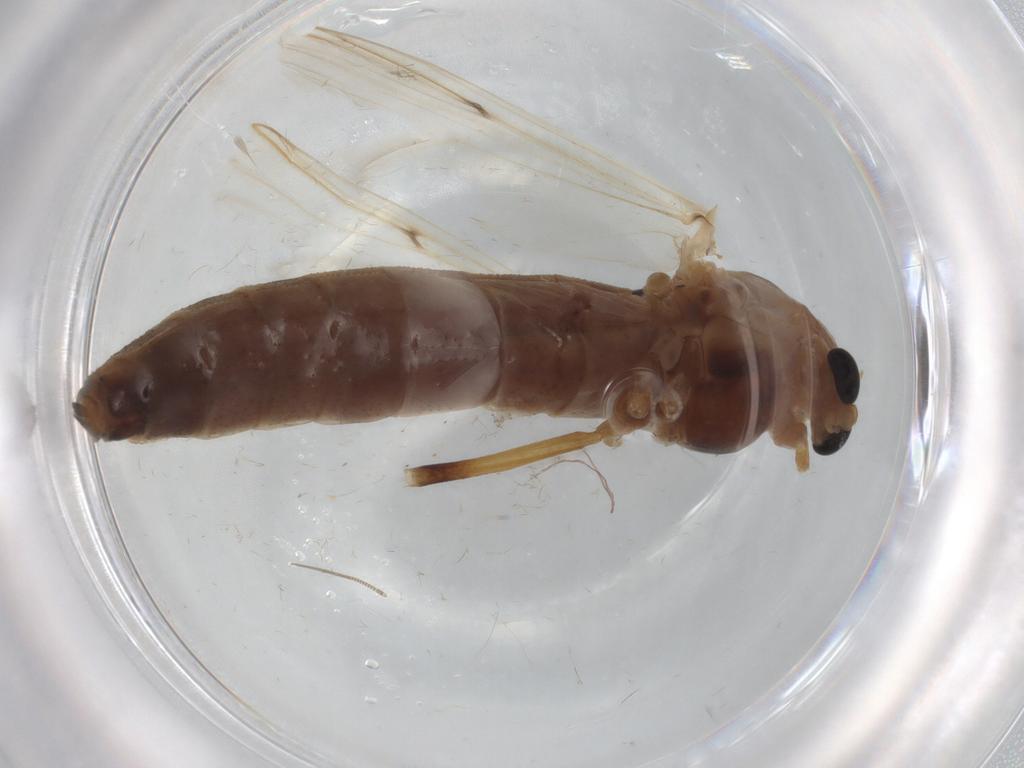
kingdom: Animalia
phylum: Arthropoda
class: Insecta
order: Diptera
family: Chironomidae
